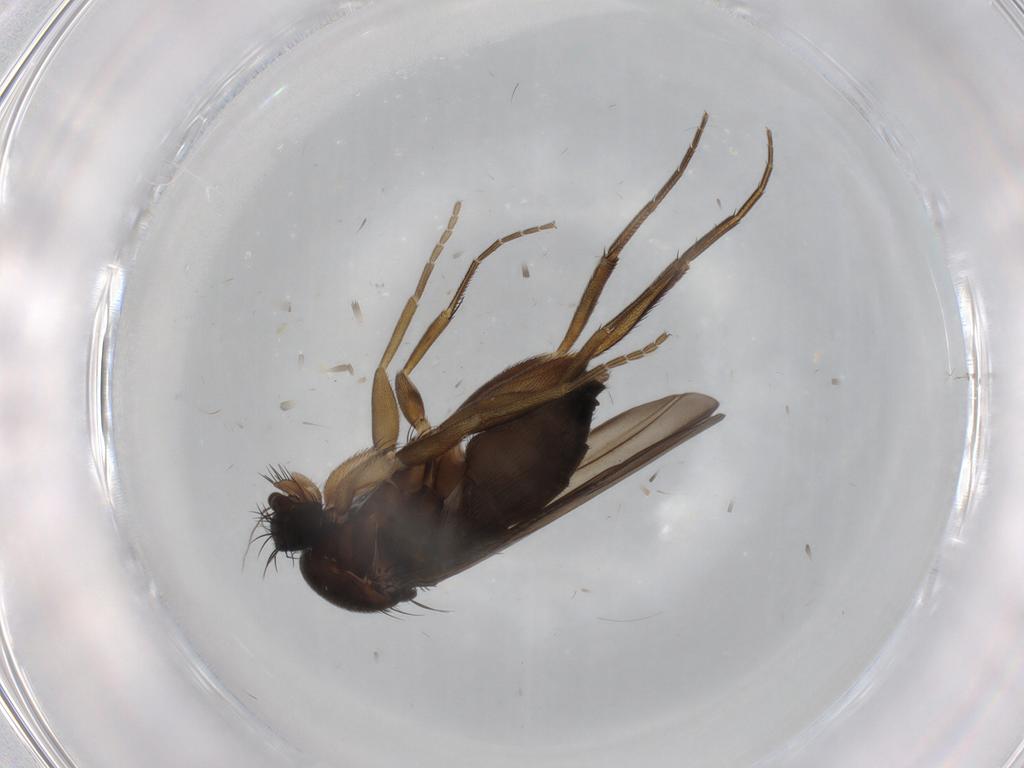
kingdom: Animalia
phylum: Arthropoda
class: Insecta
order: Diptera
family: Phoridae
